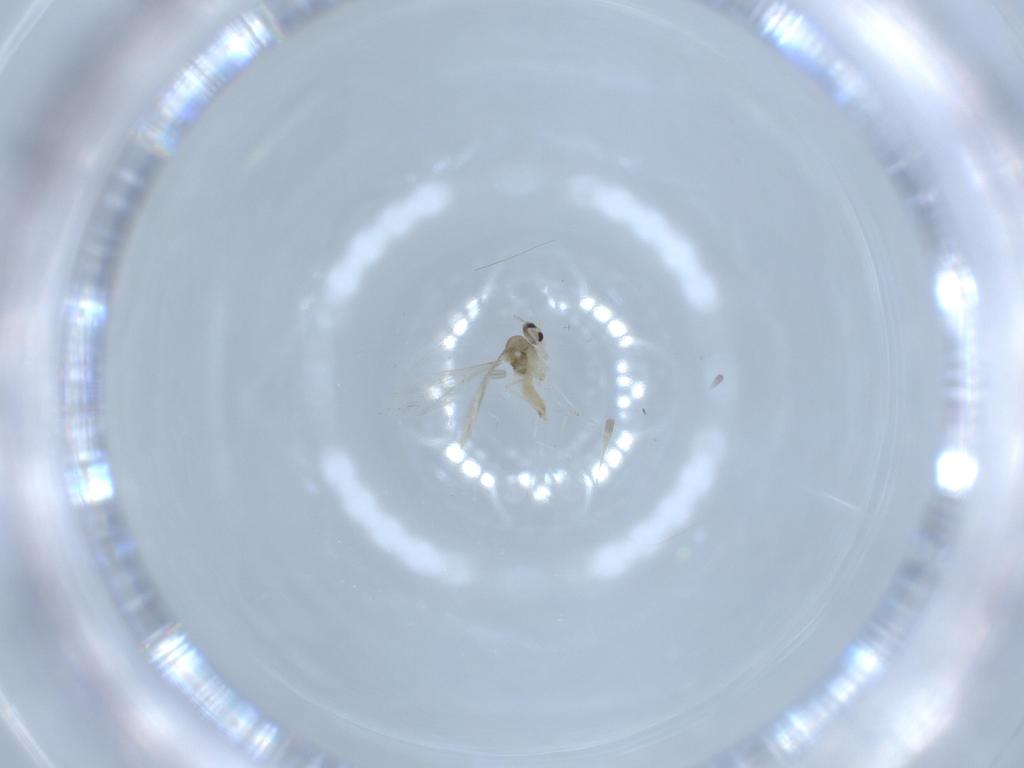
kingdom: Animalia
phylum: Arthropoda
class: Insecta
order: Diptera
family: Cecidomyiidae
